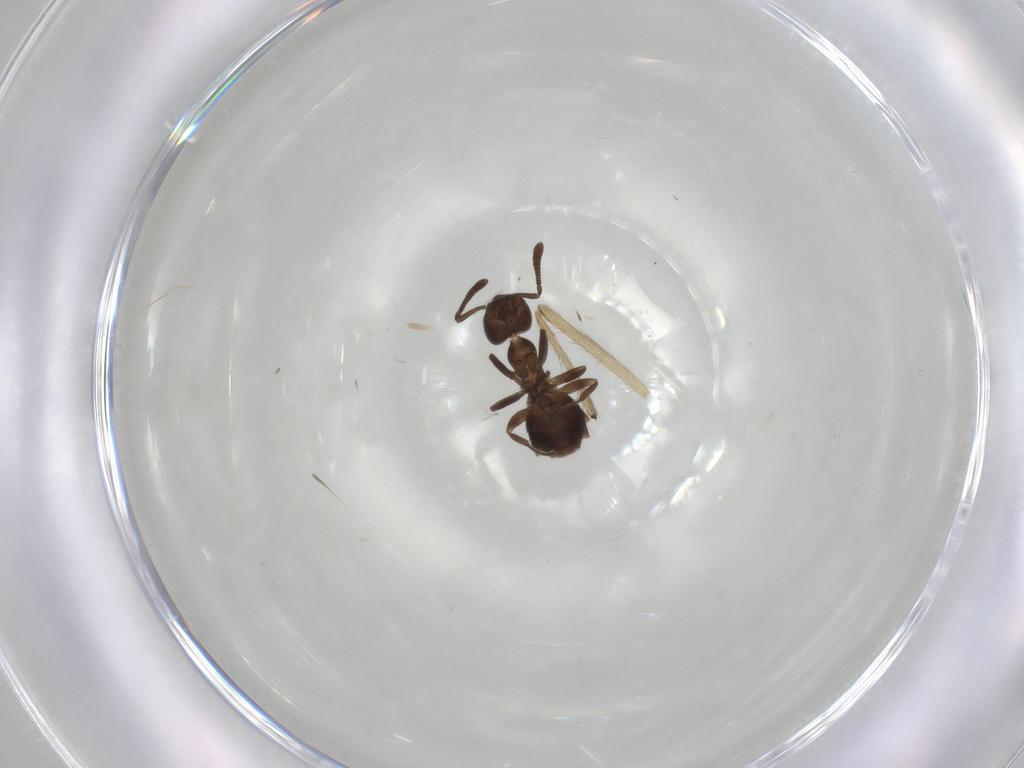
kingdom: Animalia
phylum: Arthropoda
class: Insecta
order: Hymenoptera
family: Formicidae
